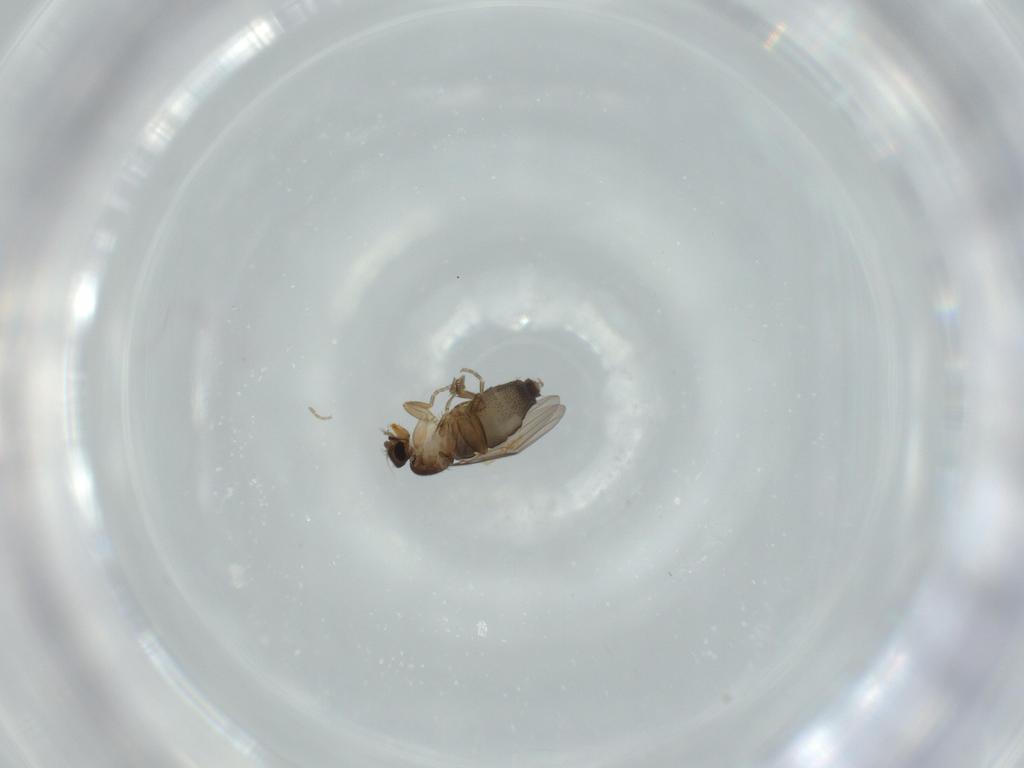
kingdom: Animalia
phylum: Arthropoda
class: Insecta
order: Diptera
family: Phoridae
